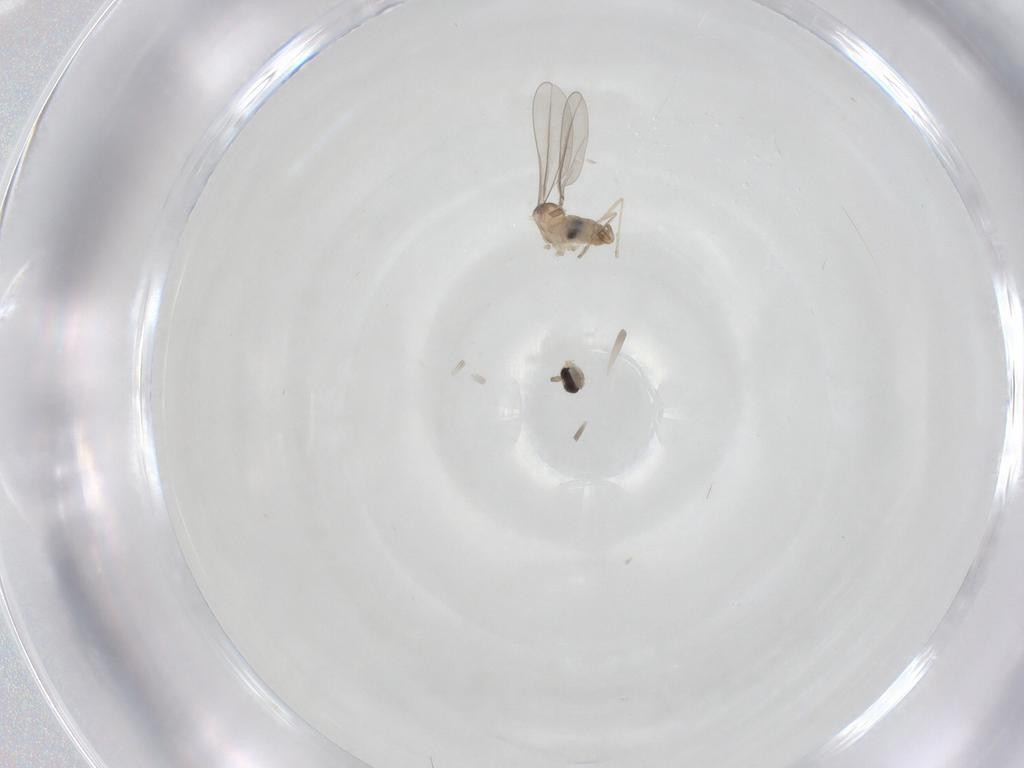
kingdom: Animalia
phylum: Arthropoda
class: Insecta
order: Diptera
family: Cecidomyiidae
